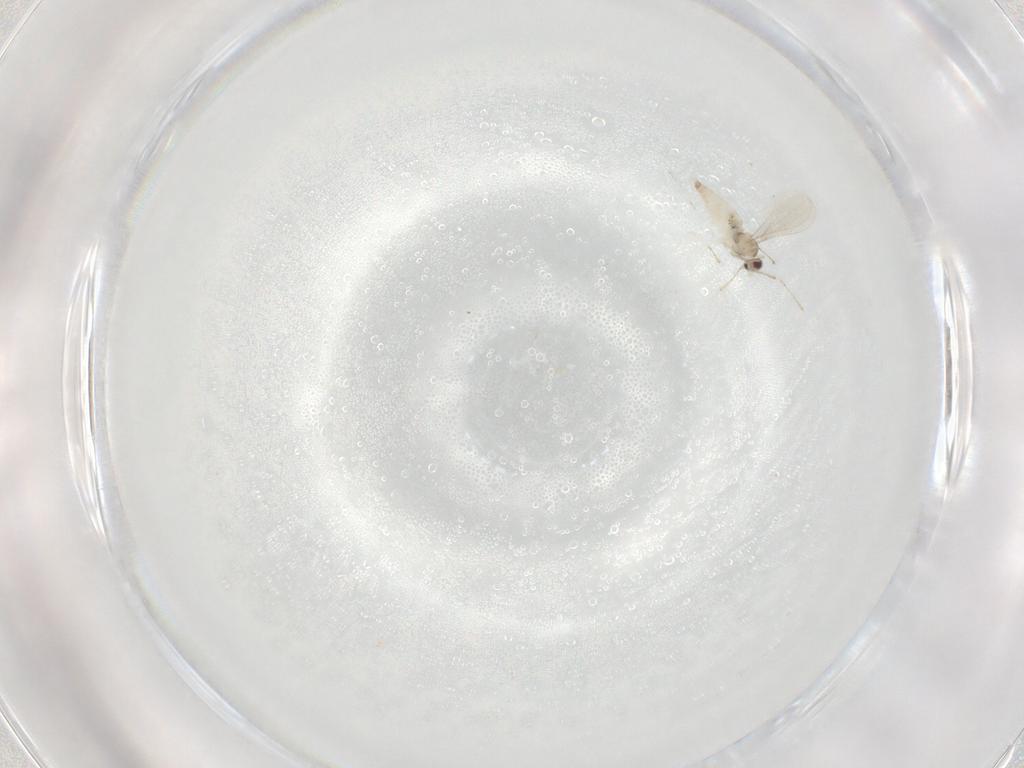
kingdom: Animalia
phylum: Arthropoda
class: Insecta
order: Diptera
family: Cecidomyiidae
